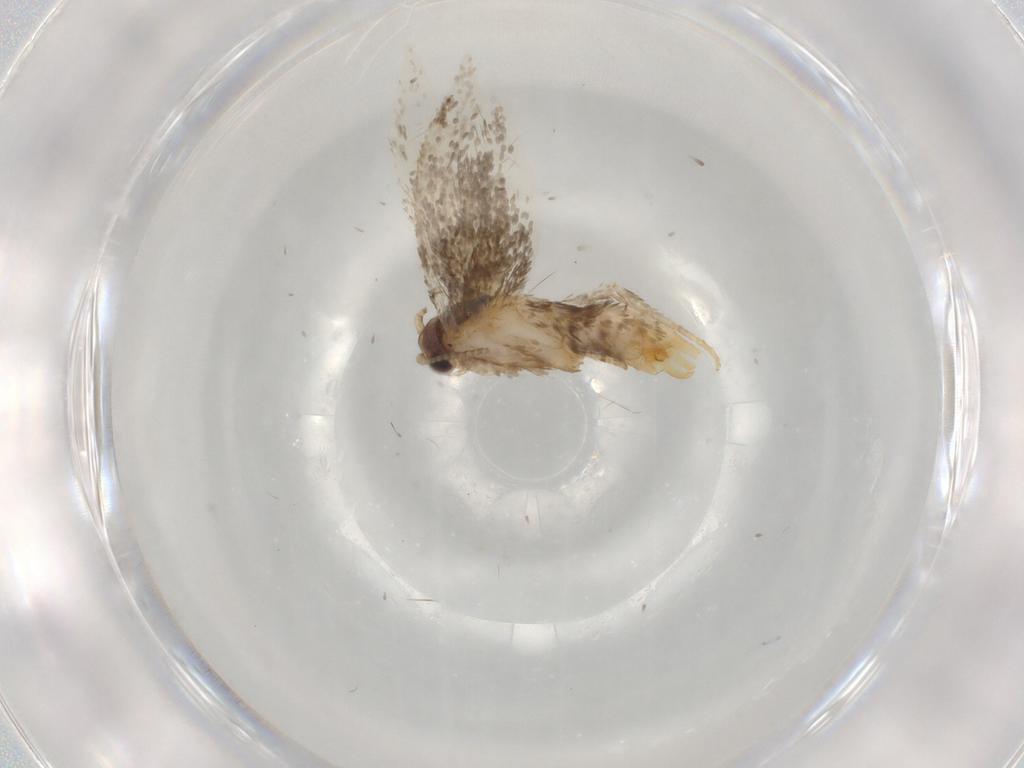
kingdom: Animalia
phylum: Arthropoda
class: Insecta
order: Lepidoptera
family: Tineidae
